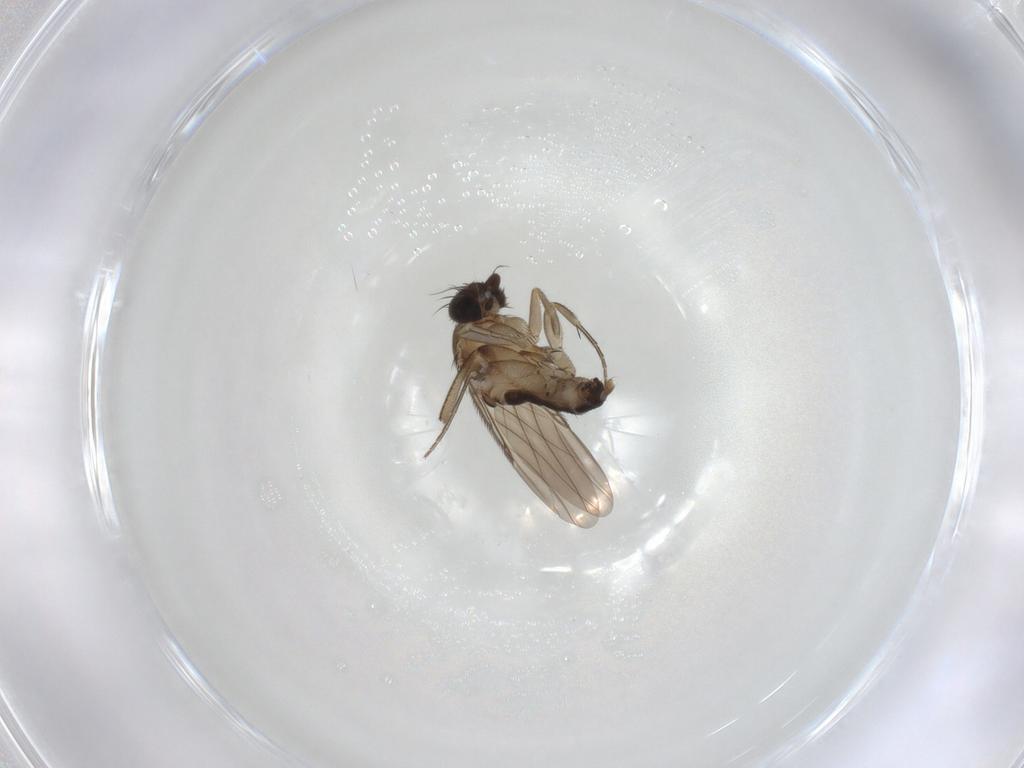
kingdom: Animalia
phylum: Arthropoda
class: Insecta
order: Diptera
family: Phoridae
